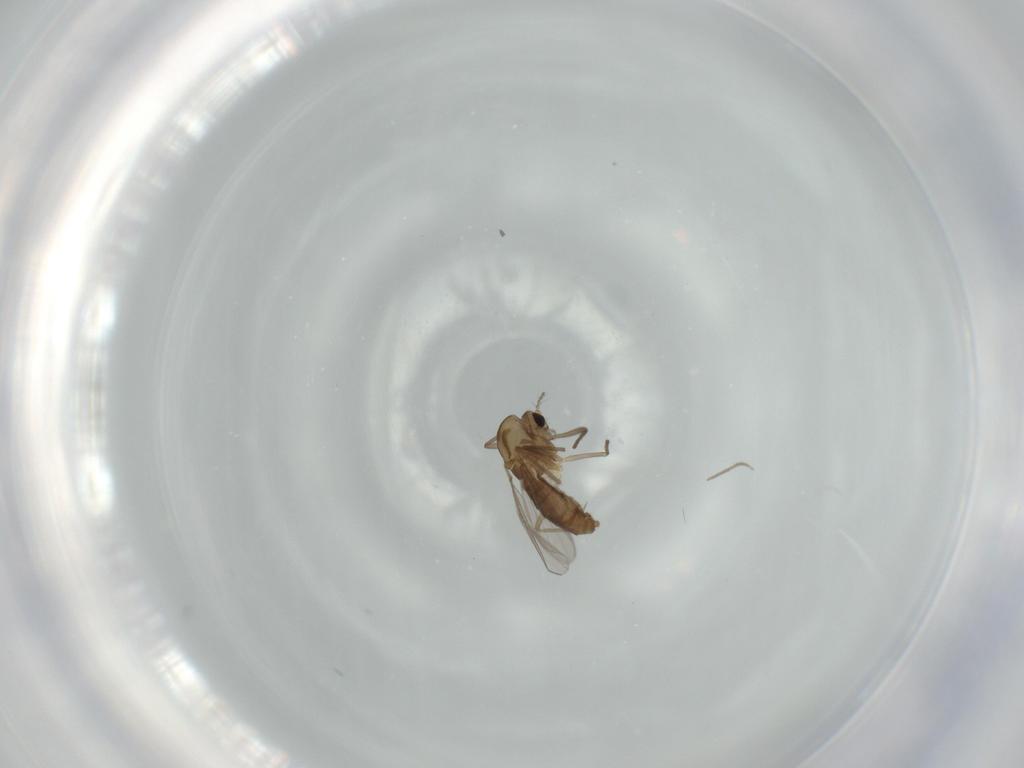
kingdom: Animalia
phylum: Arthropoda
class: Insecta
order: Diptera
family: Chironomidae
